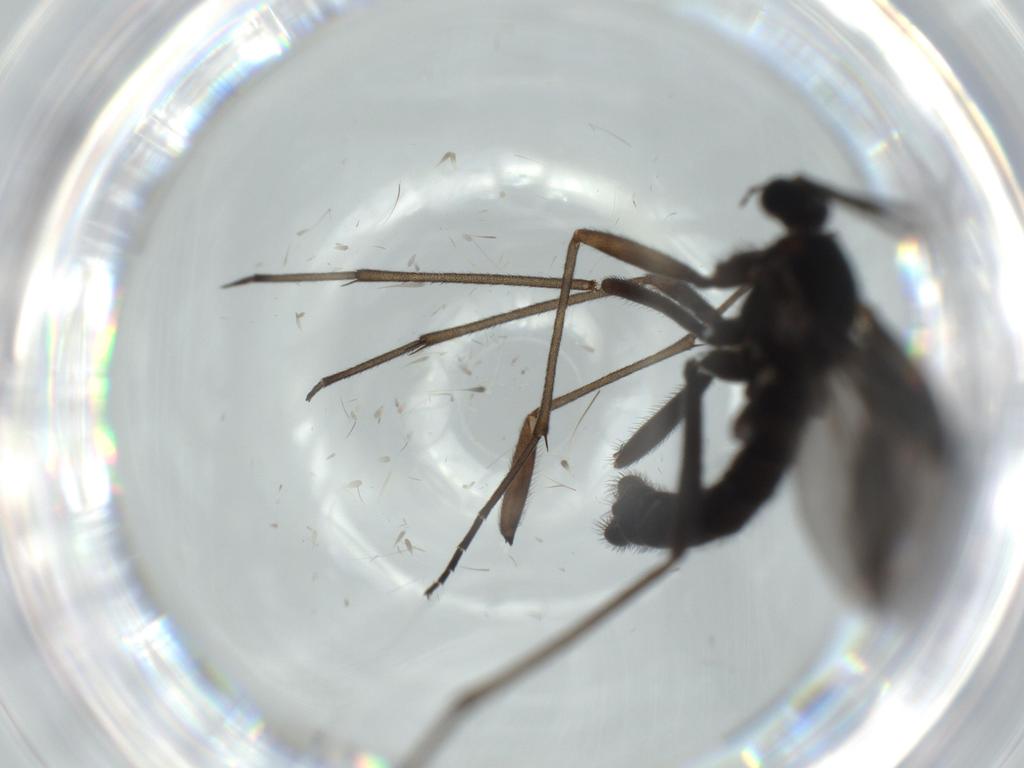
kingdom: Animalia
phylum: Arthropoda
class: Insecta
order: Diptera
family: Sciaridae
